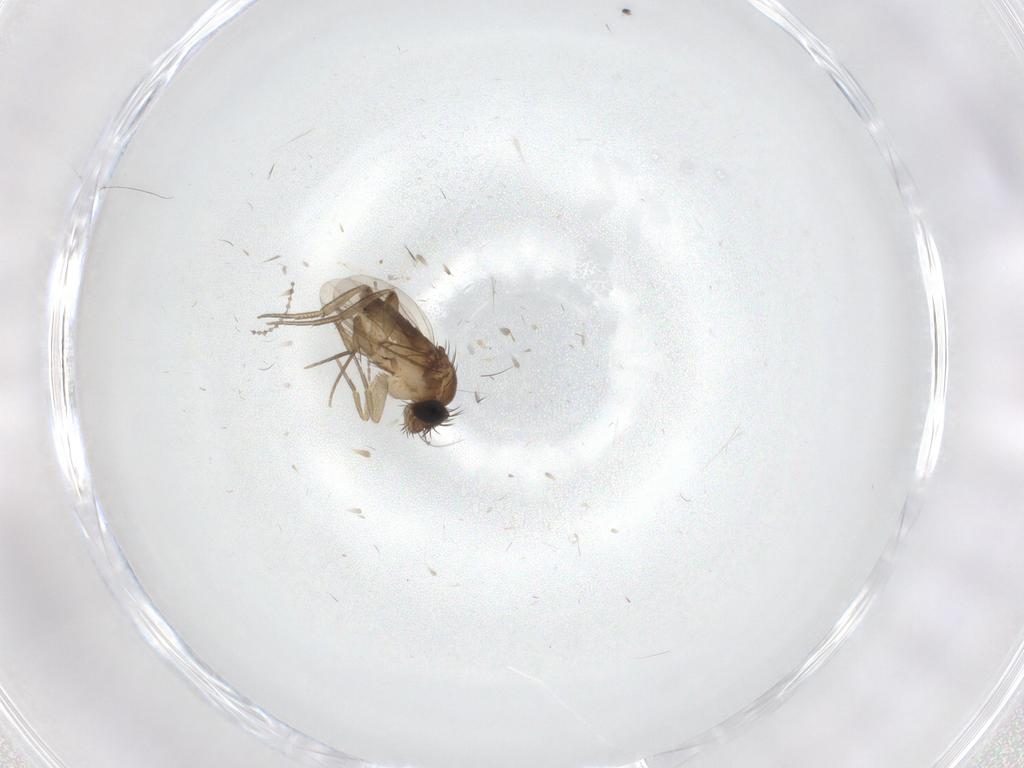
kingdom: Animalia
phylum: Arthropoda
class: Insecta
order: Diptera
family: Phoridae
